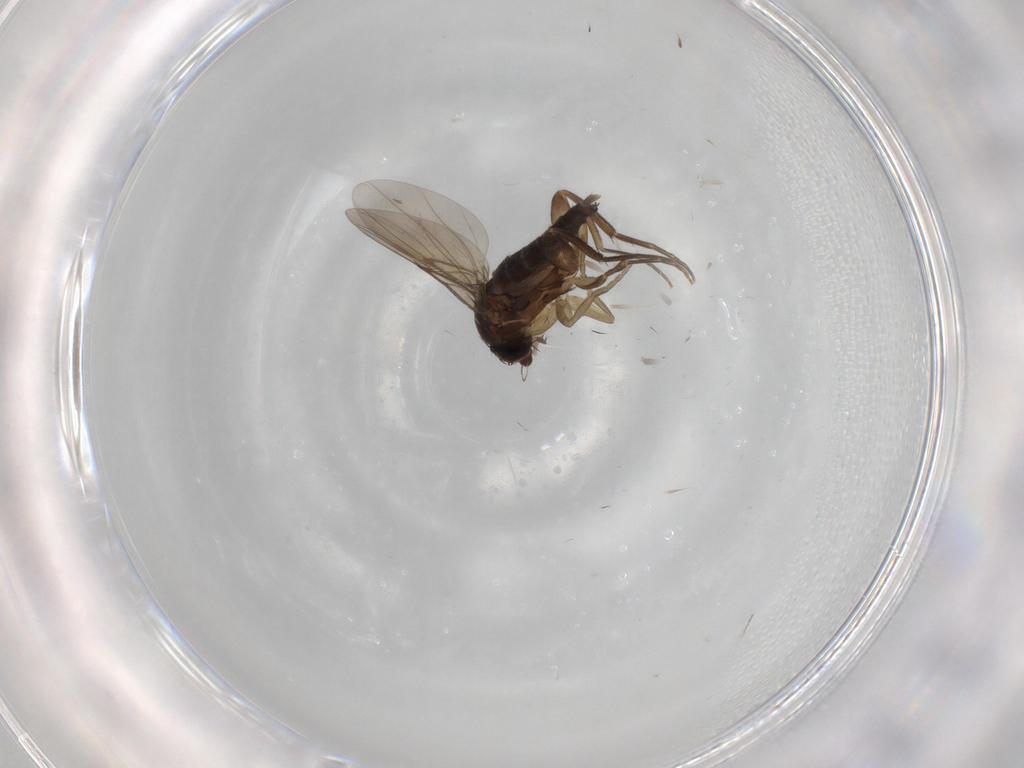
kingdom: Animalia
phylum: Arthropoda
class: Insecta
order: Diptera
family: Phoridae
